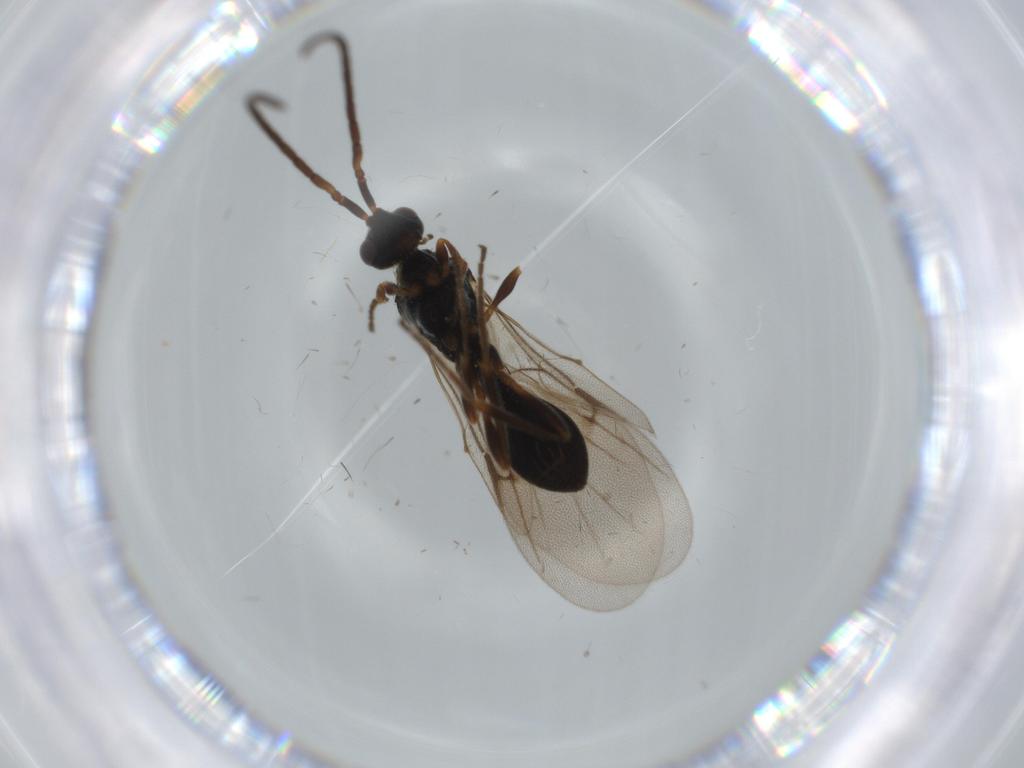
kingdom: Animalia
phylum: Arthropoda
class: Insecta
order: Hymenoptera
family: Diapriidae
